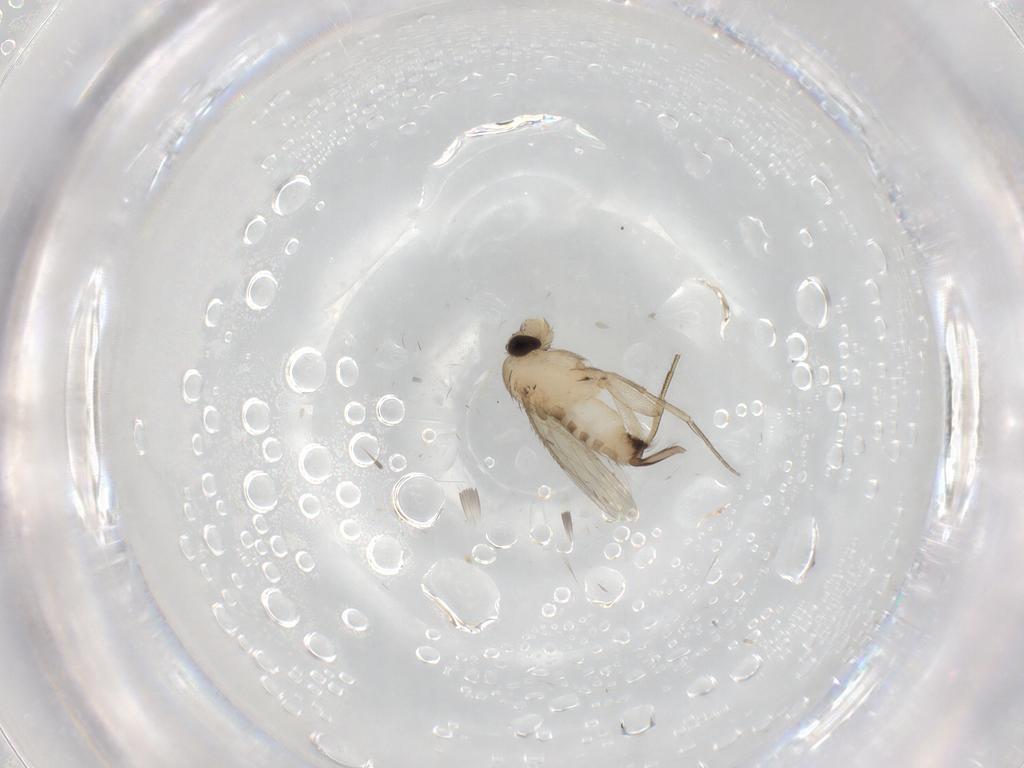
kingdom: Animalia
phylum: Arthropoda
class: Insecta
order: Diptera
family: Phoridae
